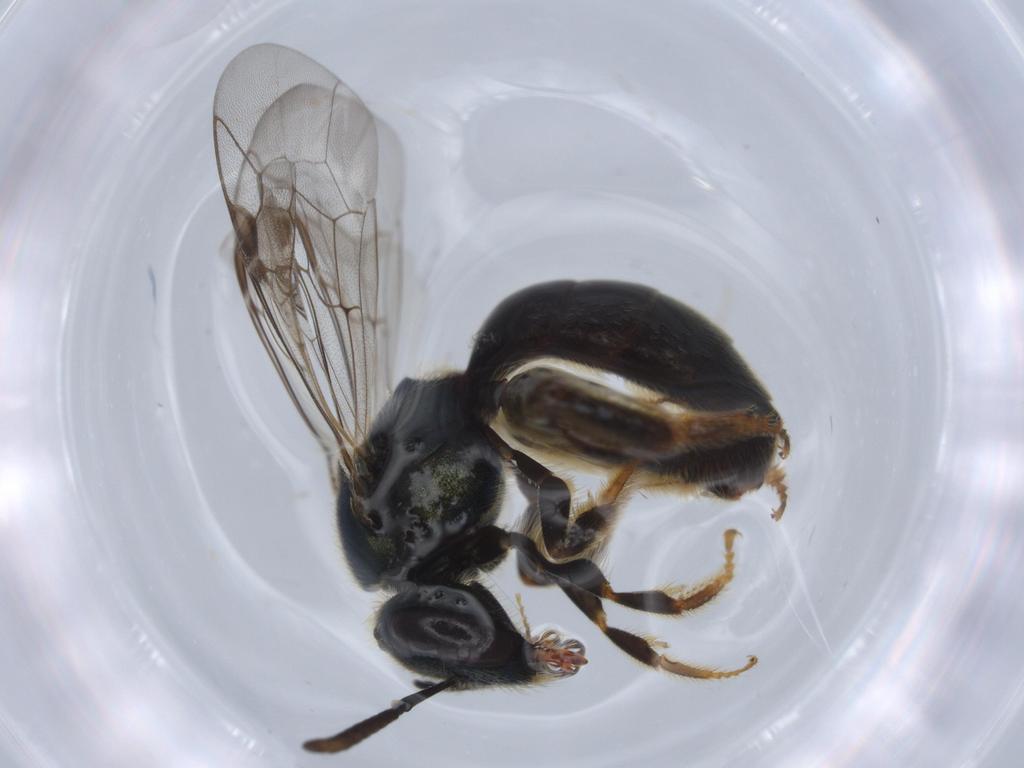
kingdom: Animalia
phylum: Arthropoda
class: Insecta
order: Hymenoptera
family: Halictidae
